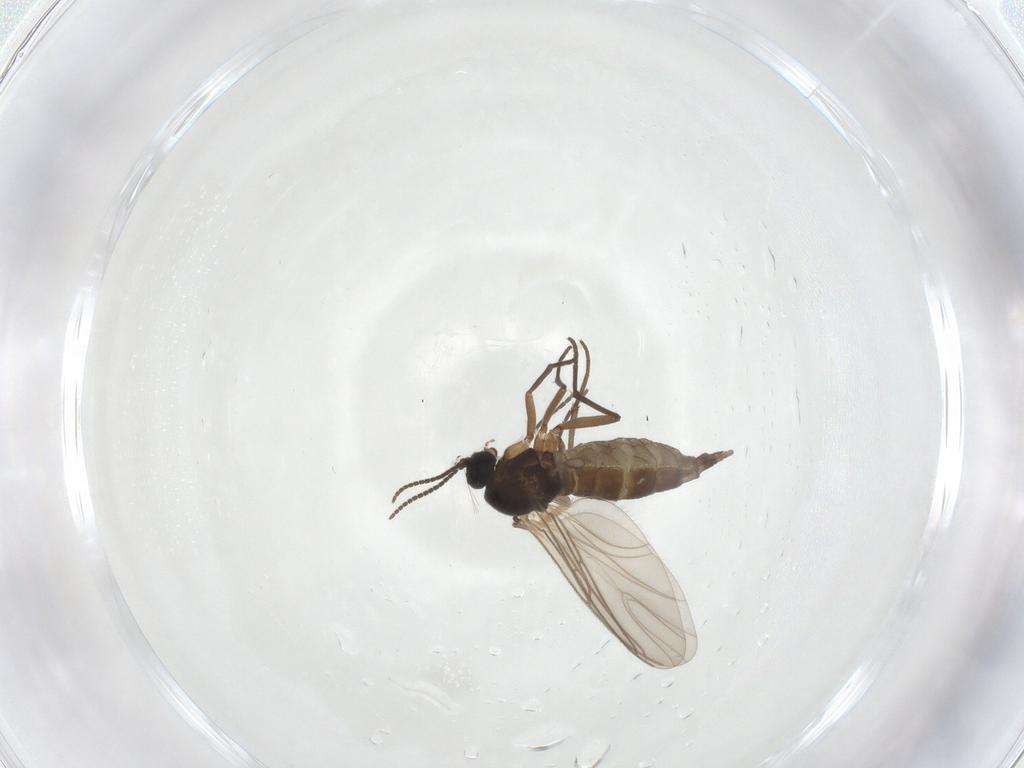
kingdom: Animalia
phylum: Arthropoda
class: Insecta
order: Diptera
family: Sciaridae
